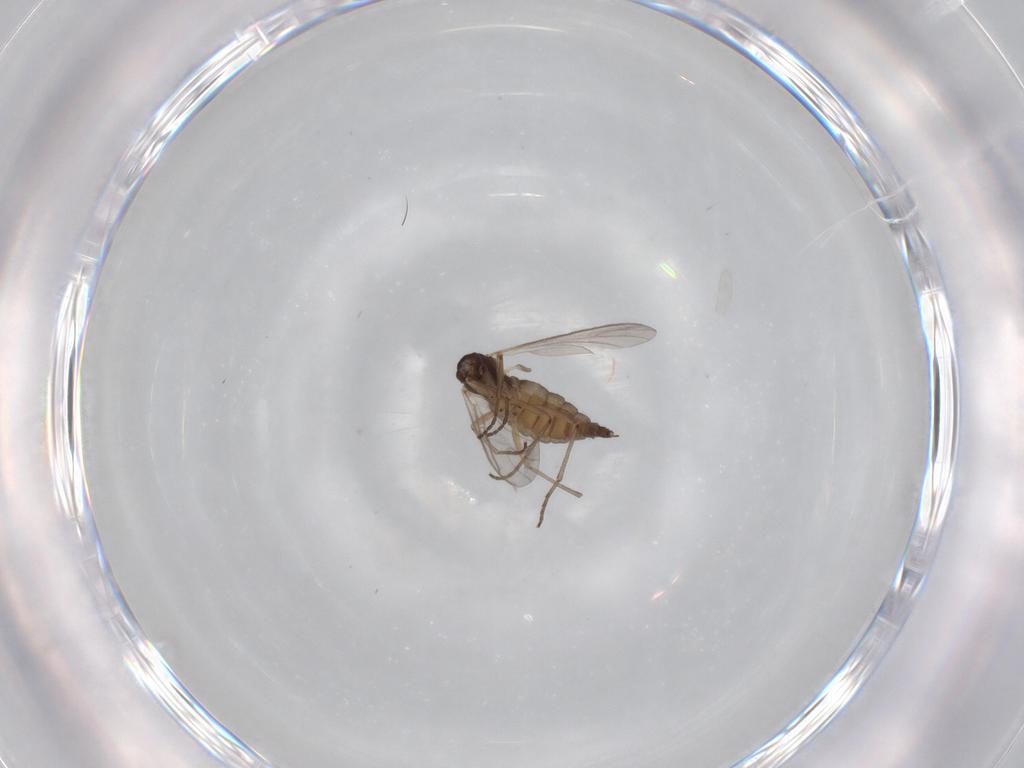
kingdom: Animalia
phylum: Arthropoda
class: Insecta
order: Diptera
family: Sciaridae
